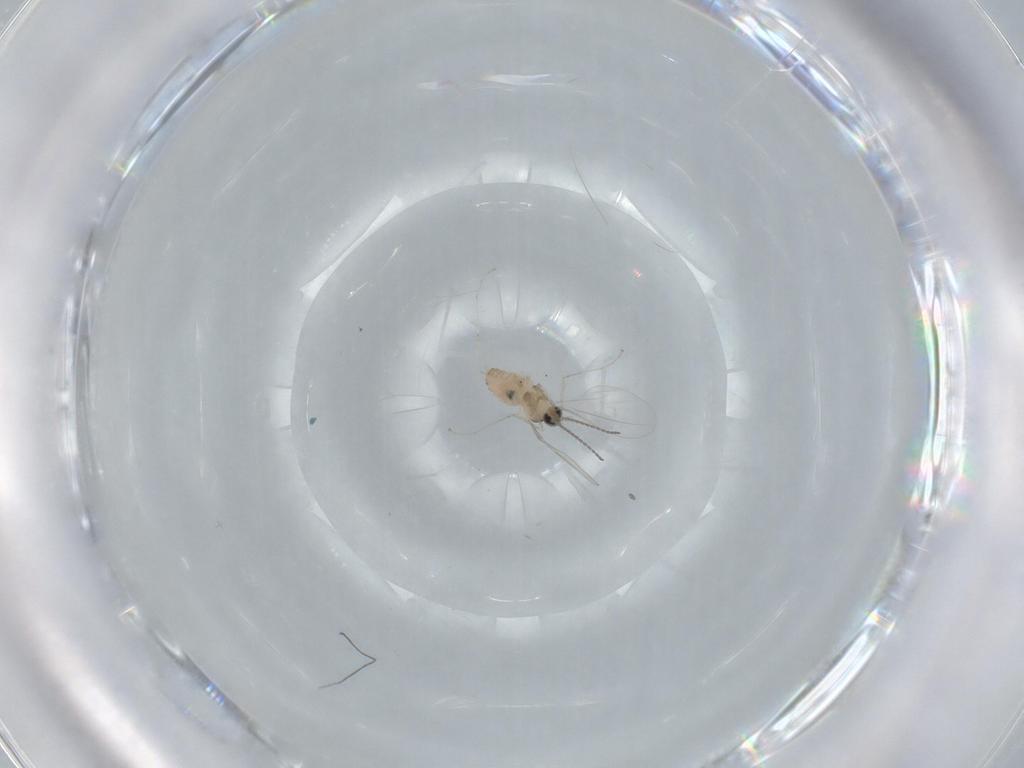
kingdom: Animalia
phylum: Arthropoda
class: Insecta
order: Diptera
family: Cecidomyiidae
